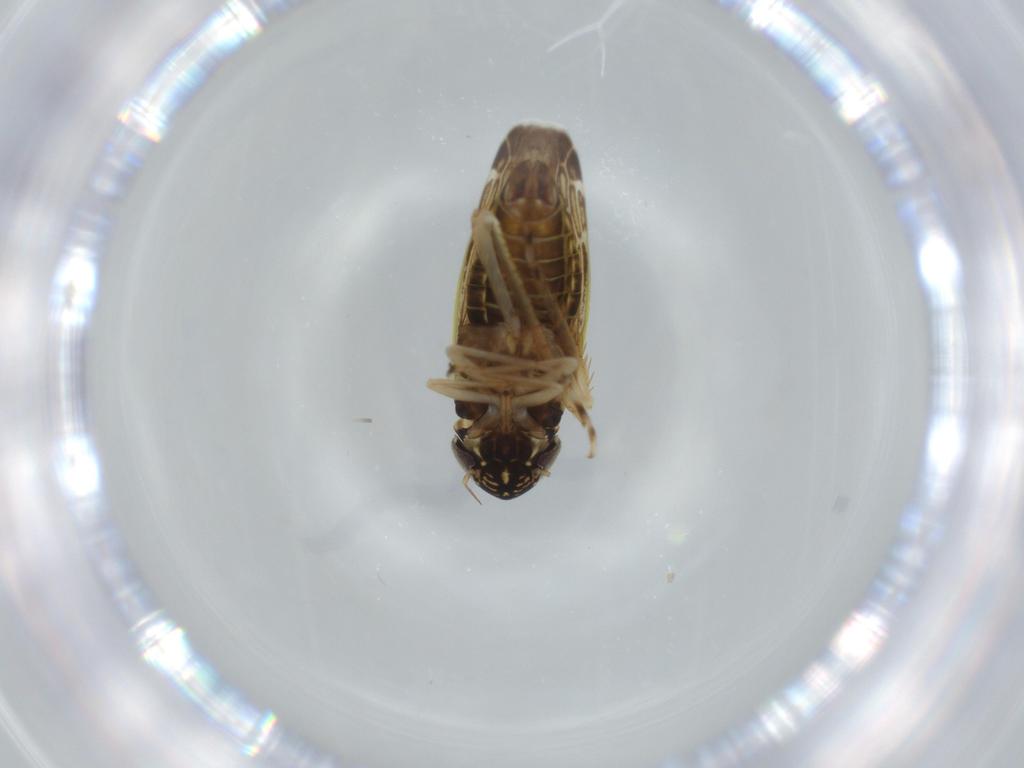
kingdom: Animalia
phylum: Arthropoda
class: Insecta
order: Hemiptera
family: Cicadellidae
